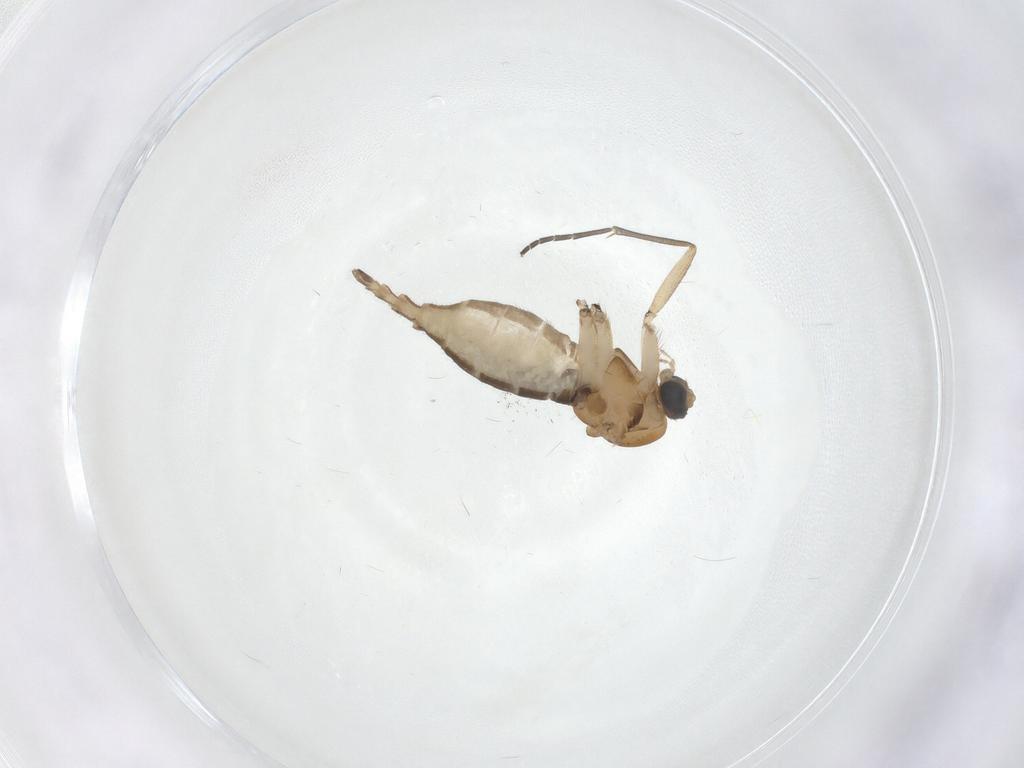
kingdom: Animalia
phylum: Arthropoda
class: Insecta
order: Diptera
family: Sciaridae
